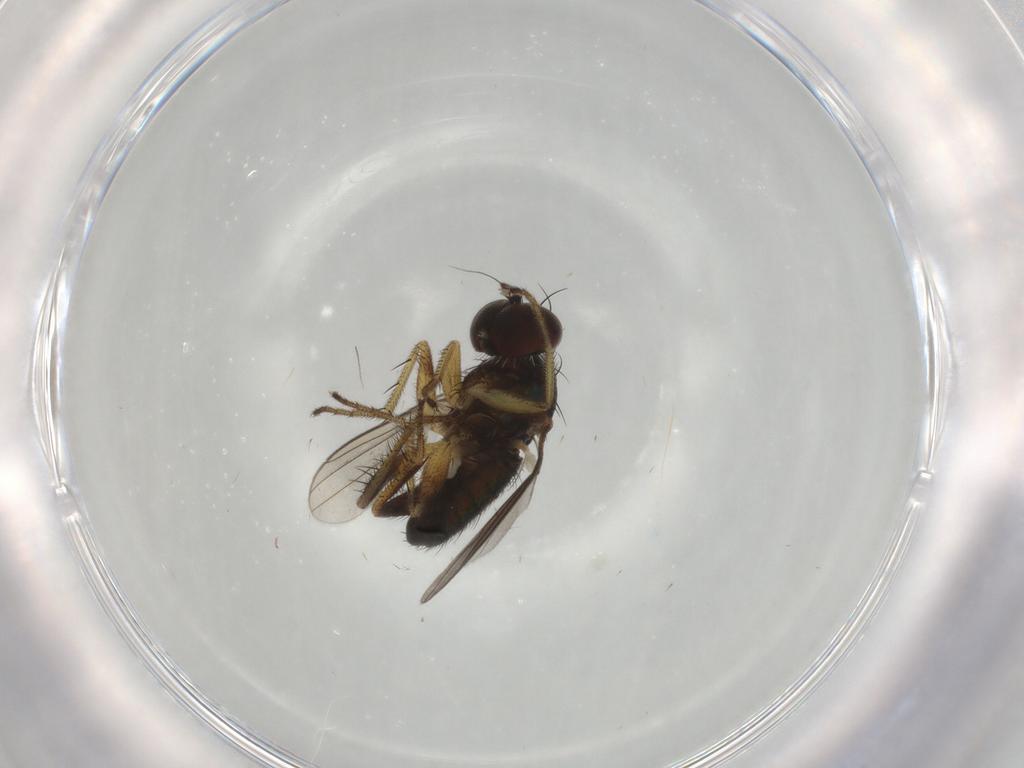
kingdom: Animalia
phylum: Arthropoda
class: Insecta
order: Diptera
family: Dolichopodidae
